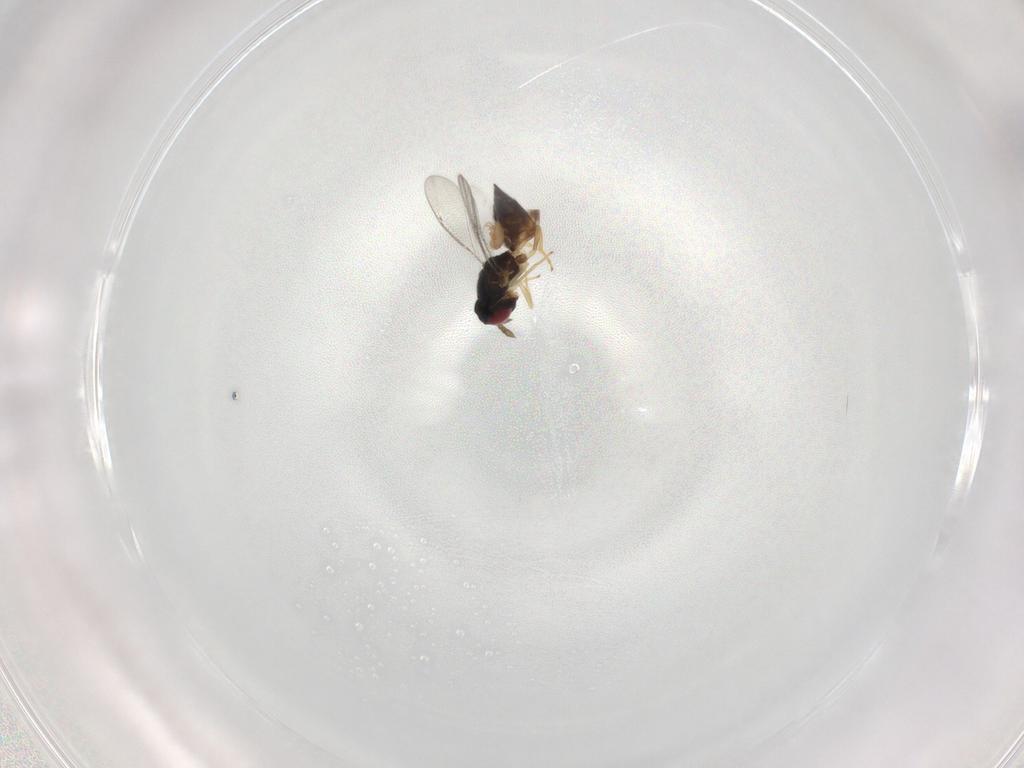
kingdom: Animalia
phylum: Arthropoda
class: Insecta
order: Hymenoptera
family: Eulophidae
